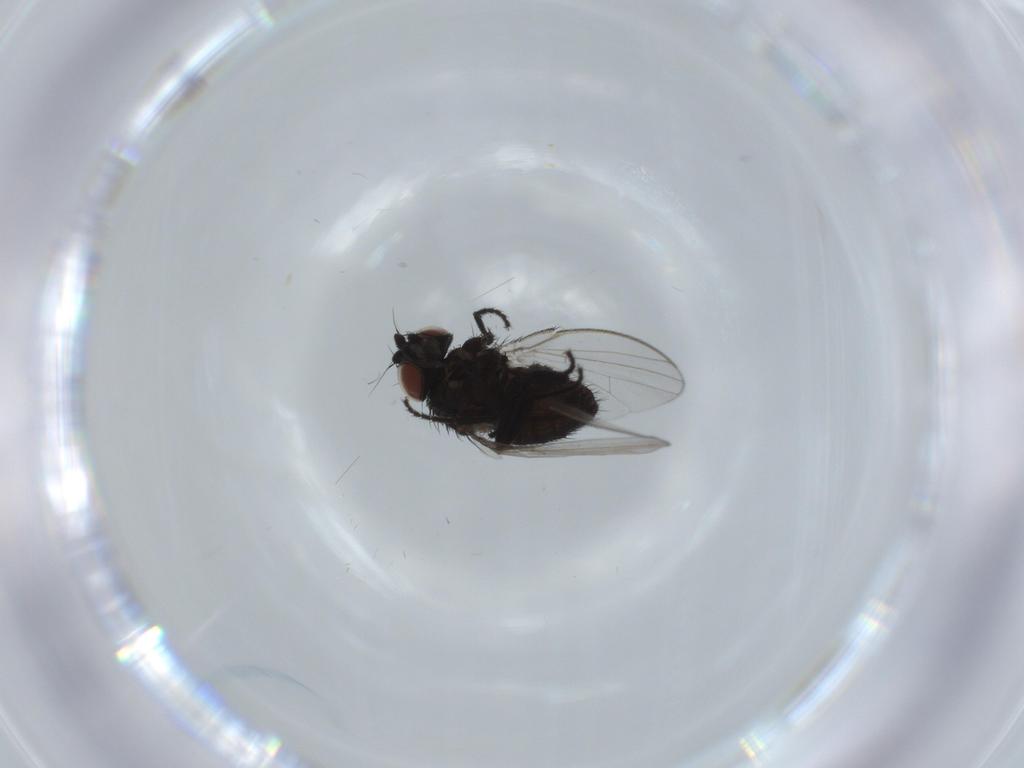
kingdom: Animalia
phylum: Arthropoda
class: Insecta
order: Diptera
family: Milichiidae
